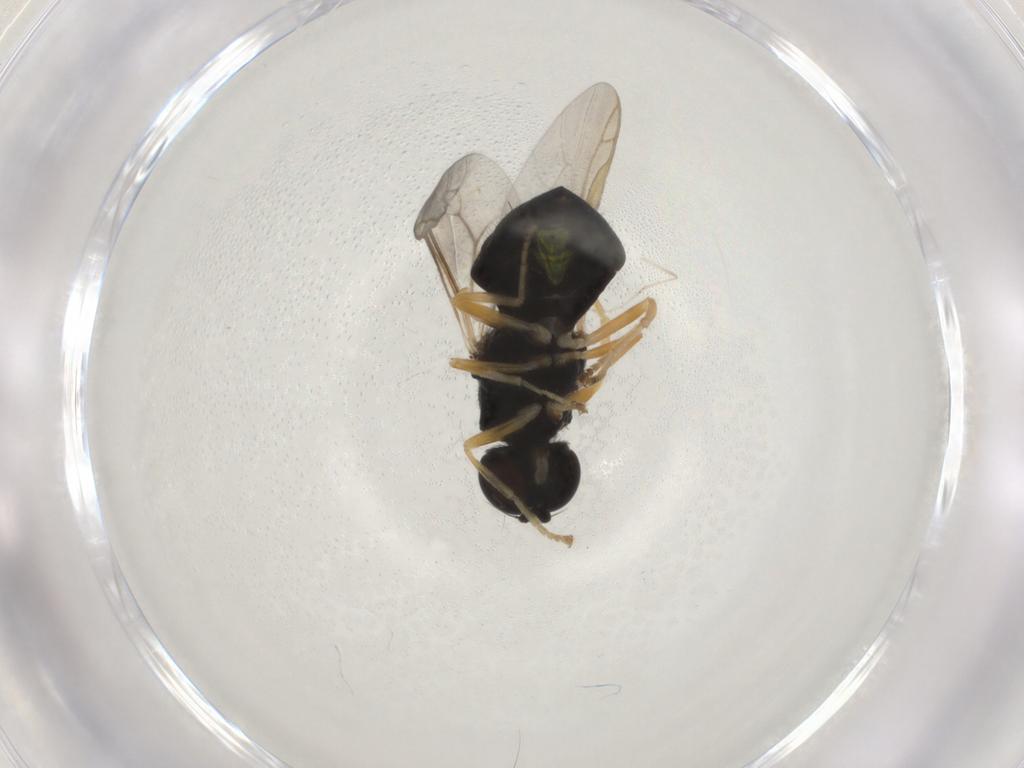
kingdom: Animalia
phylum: Arthropoda
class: Insecta
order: Diptera
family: Stratiomyidae
